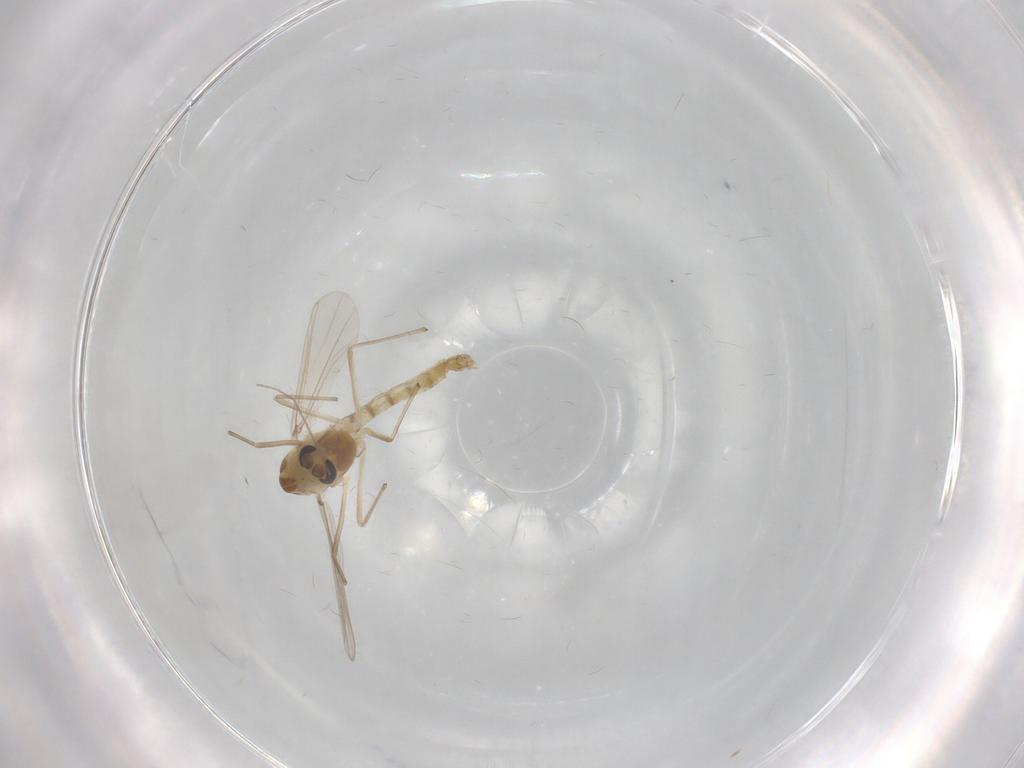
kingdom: Animalia
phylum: Arthropoda
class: Insecta
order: Diptera
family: Chironomidae
